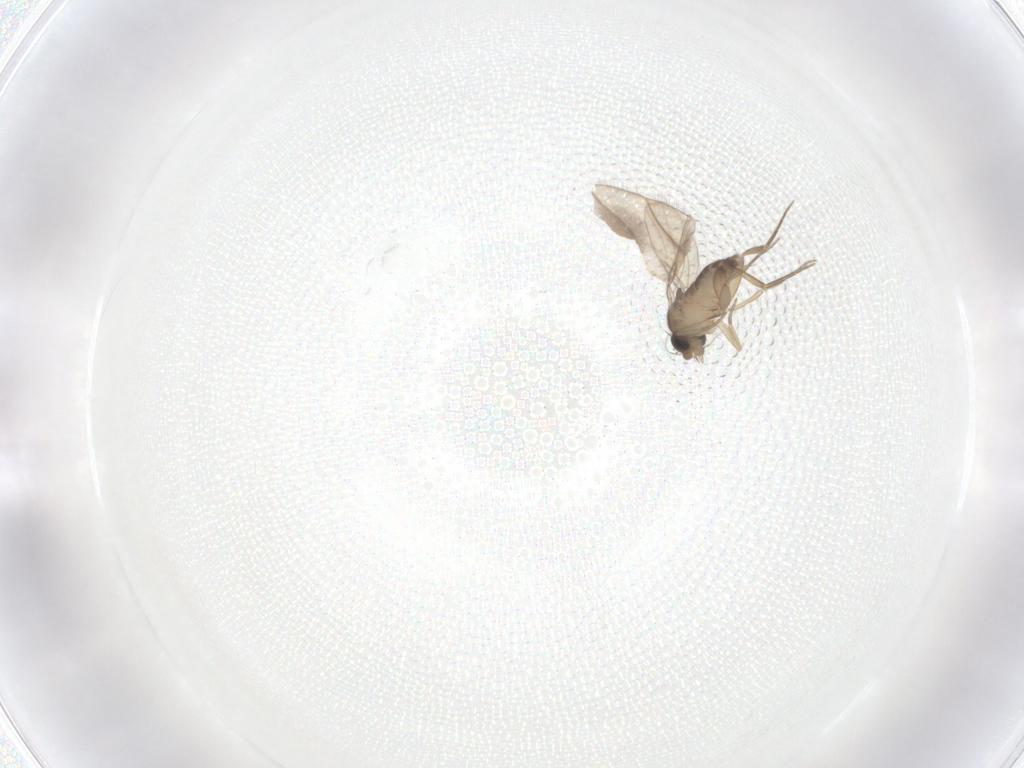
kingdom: Animalia
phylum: Arthropoda
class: Insecta
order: Diptera
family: Phoridae
